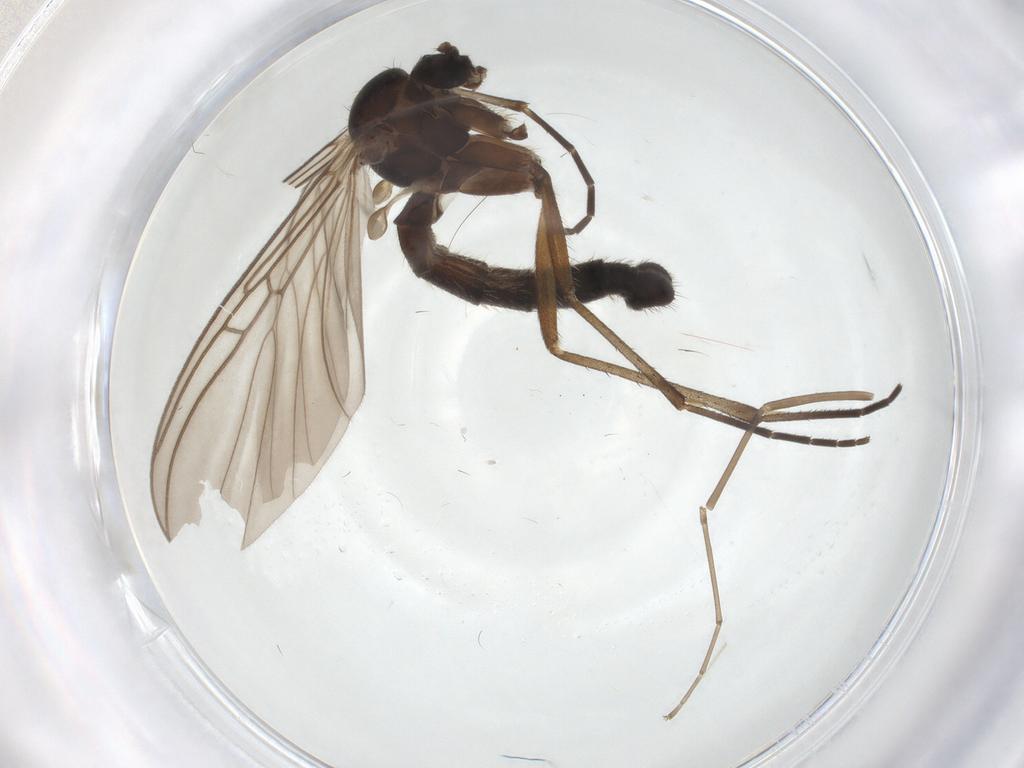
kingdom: Animalia
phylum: Arthropoda
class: Insecta
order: Diptera
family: Cecidomyiidae
